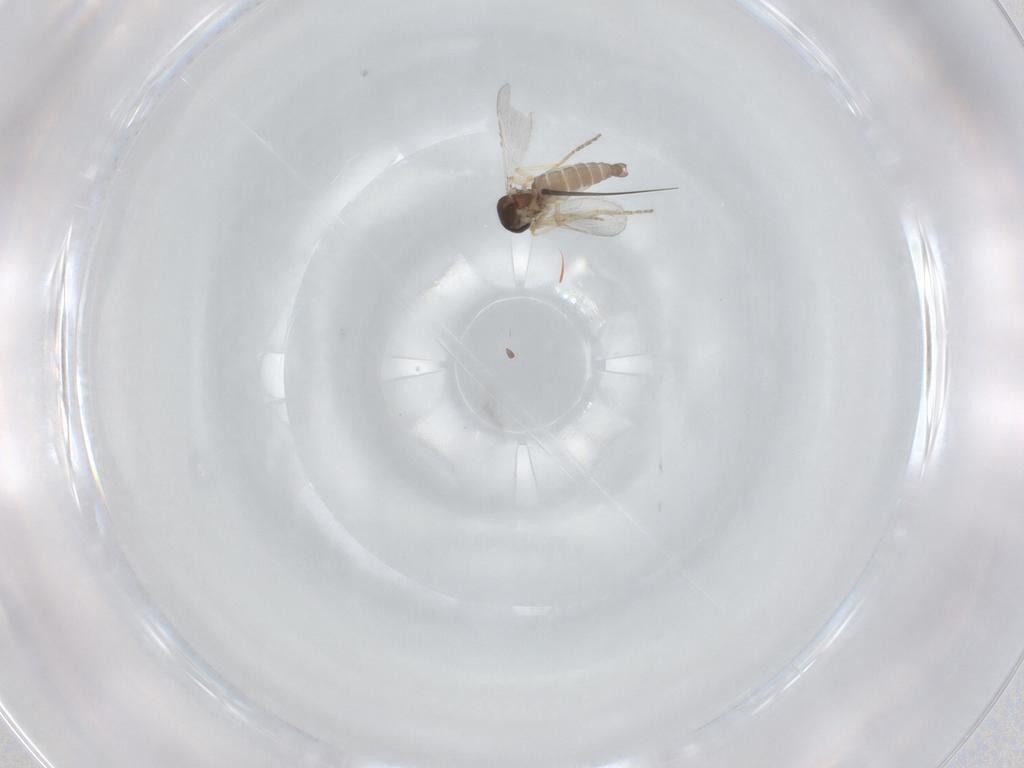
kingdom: Animalia
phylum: Arthropoda
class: Insecta
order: Diptera
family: Ceratopogonidae
